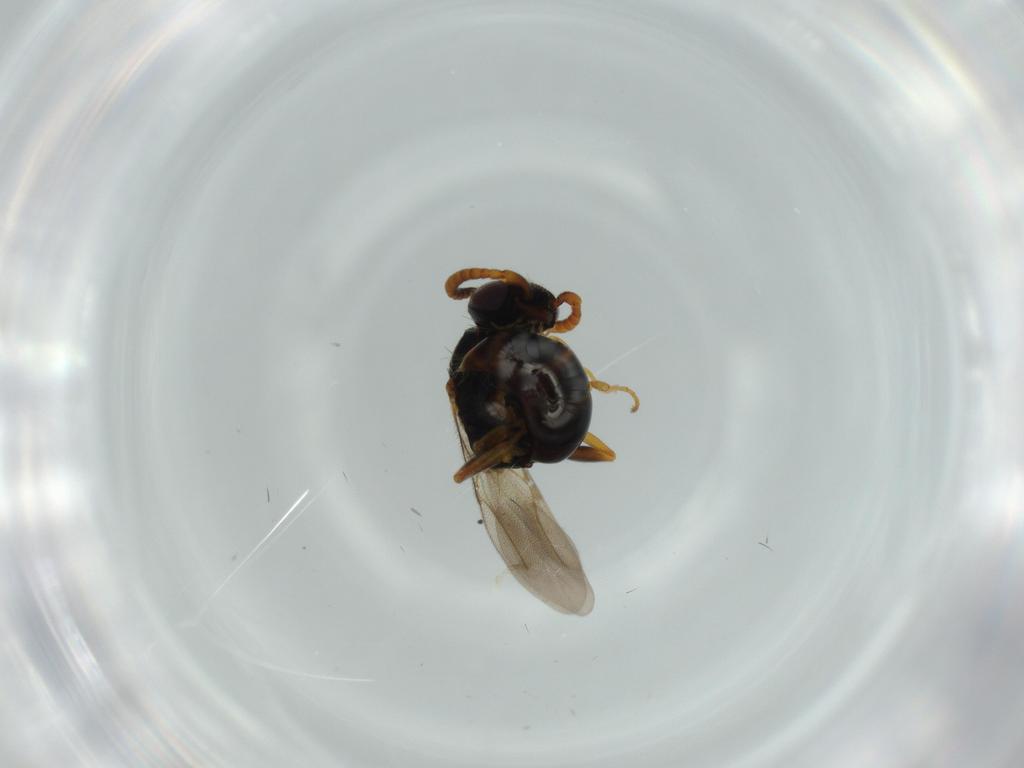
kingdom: Animalia
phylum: Arthropoda
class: Insecta
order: Hymenoptera
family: Bethylidae
